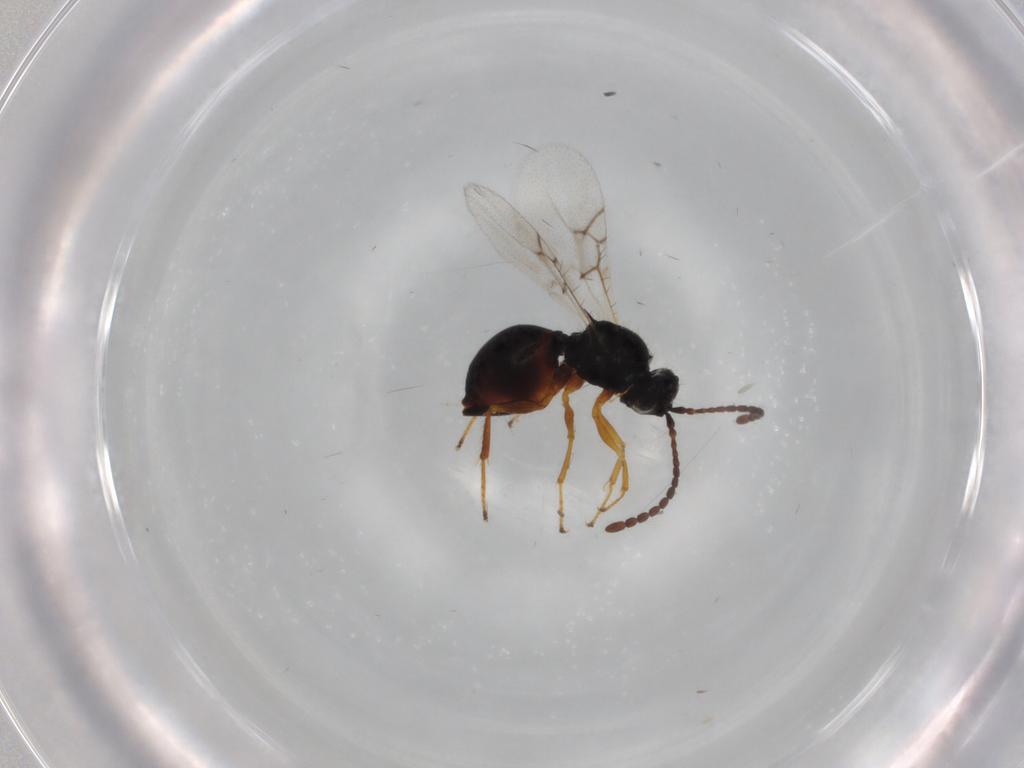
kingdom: Animalia
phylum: Arthropoda
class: Insecta
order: Hymenoptera
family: Figitidae
